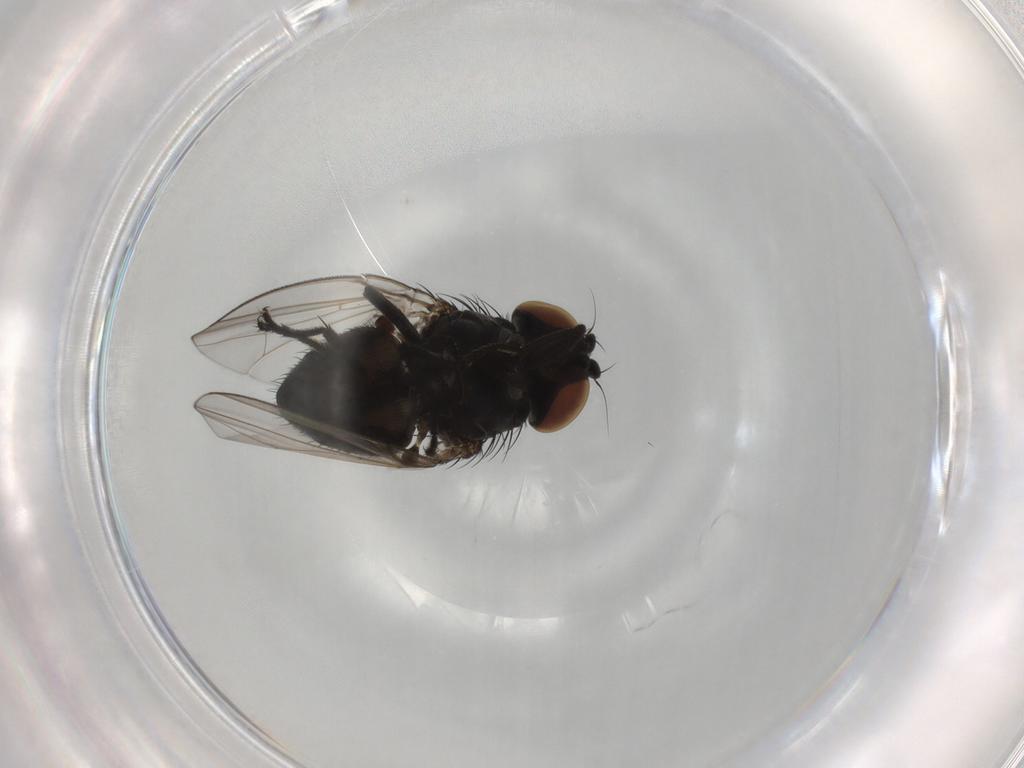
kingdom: Animalia
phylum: Arthropoda
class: Insecta
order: Diptera
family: Milichiidae
